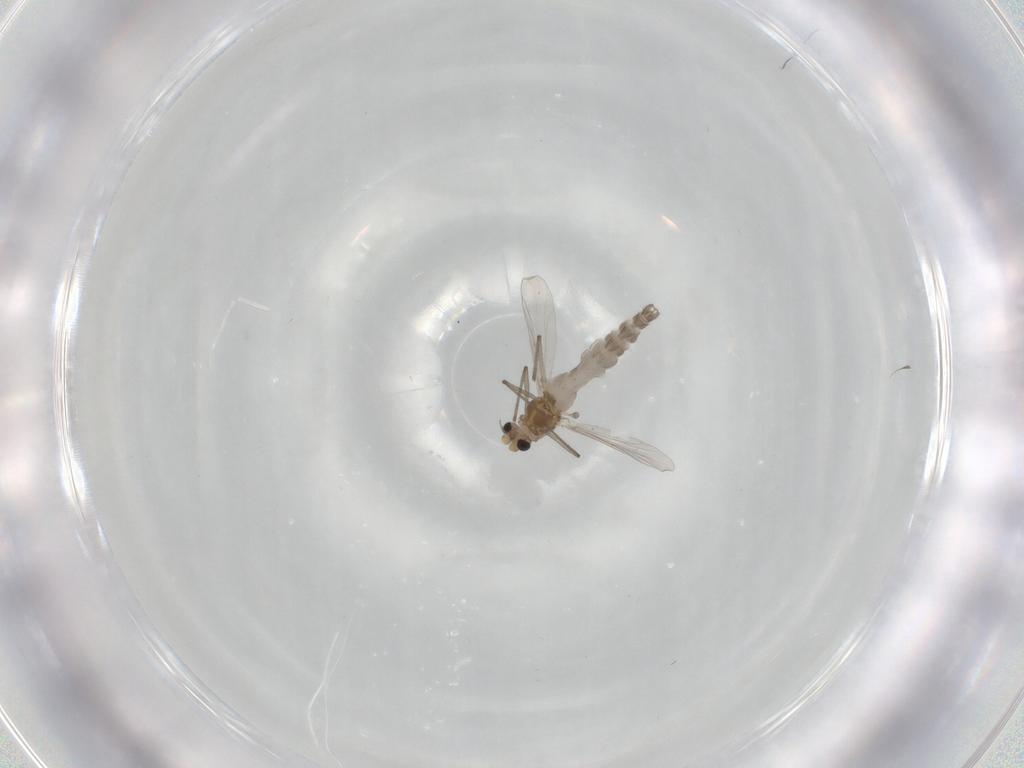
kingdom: Animalia
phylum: Arthropoda
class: Insecta
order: Diptera
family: Chironomidae
